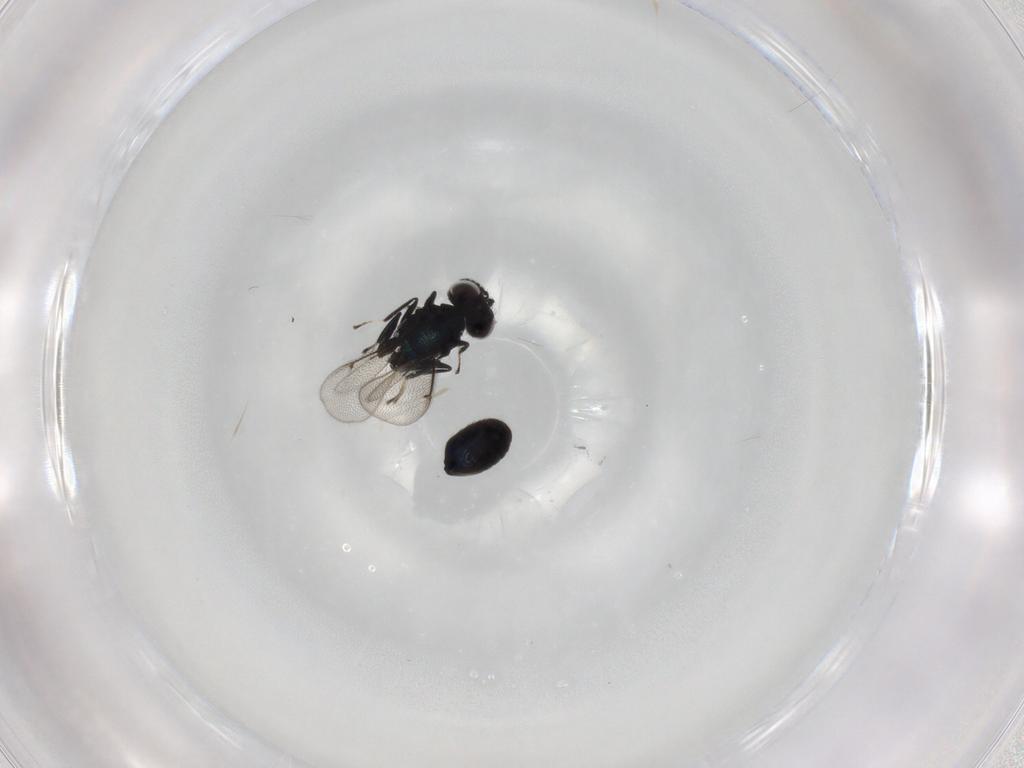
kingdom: Animalia
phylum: Arthropoda
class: Insecta
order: Hymenoptera
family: Eulophidae
